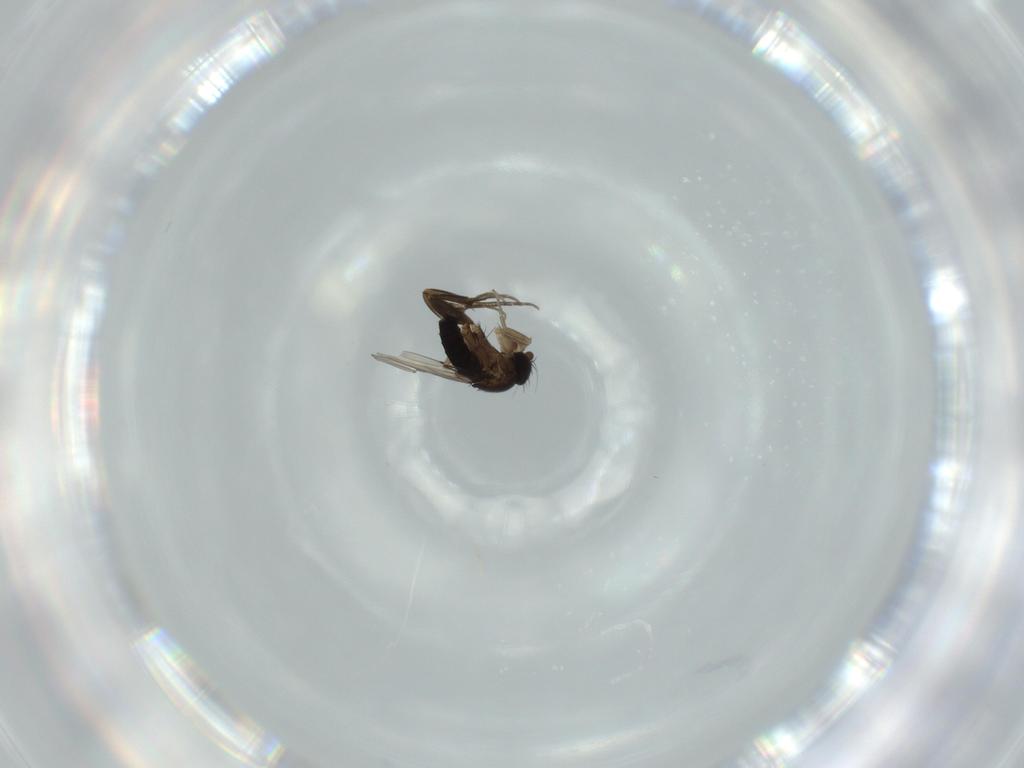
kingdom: Animalia
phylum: Arthropoda
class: Insecta
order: Diptera
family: Phoridae
